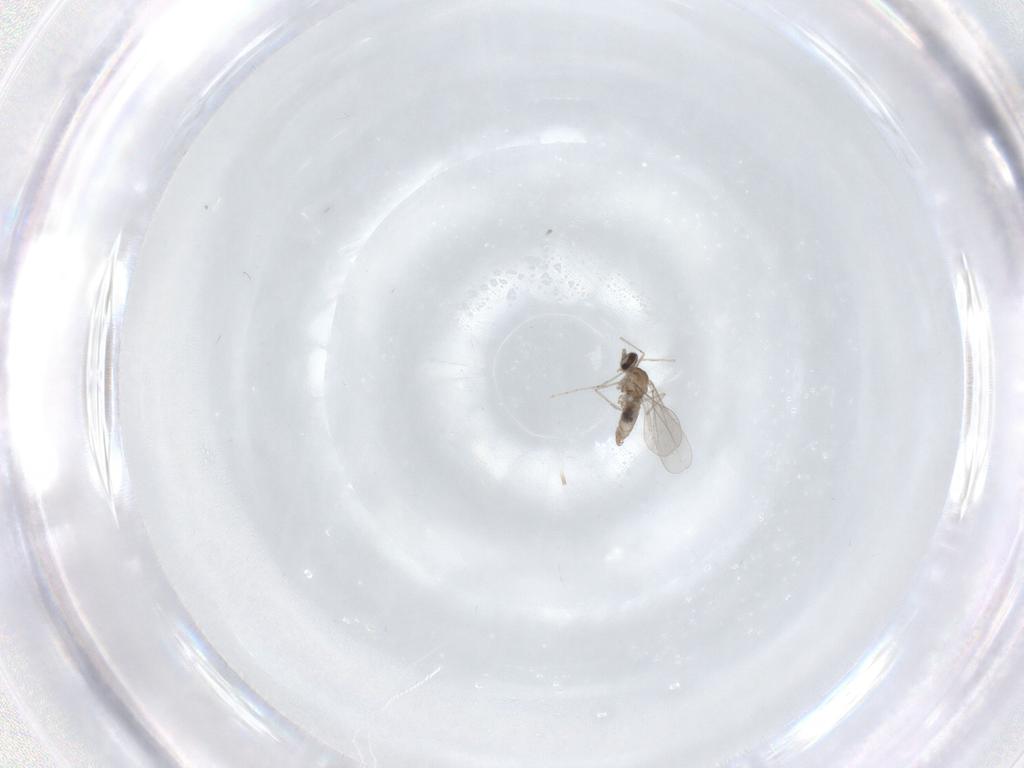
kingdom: Animalia
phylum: Arthropoda
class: Insecta
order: Diptera
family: Cecidomyiidae
